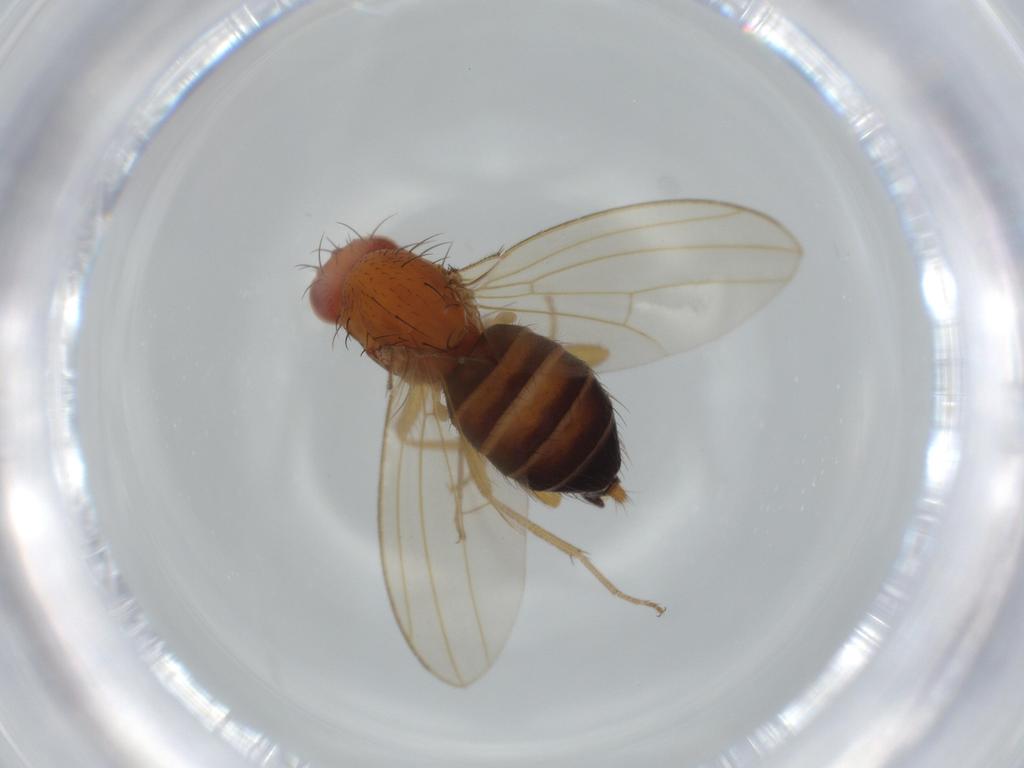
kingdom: Animalia
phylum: Arthropoda
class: Insecta
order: Diptera
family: Drosophilidae
